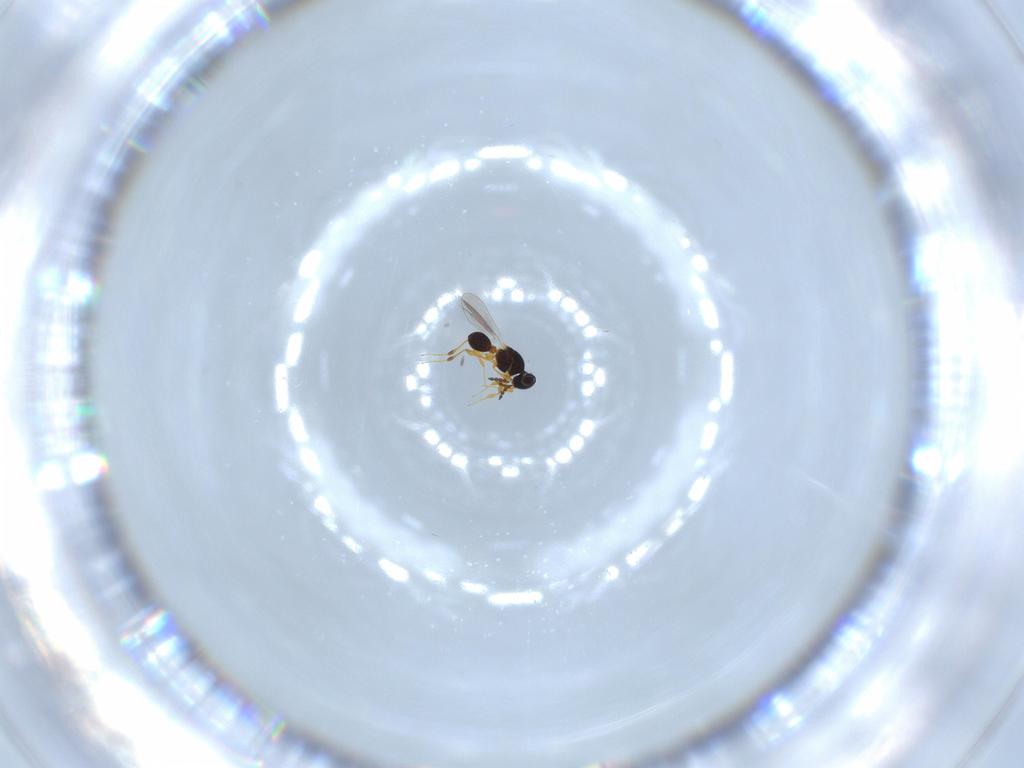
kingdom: Animalia
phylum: Arthropoda
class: Insecta
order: Hymenoptera
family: Platygastridae
